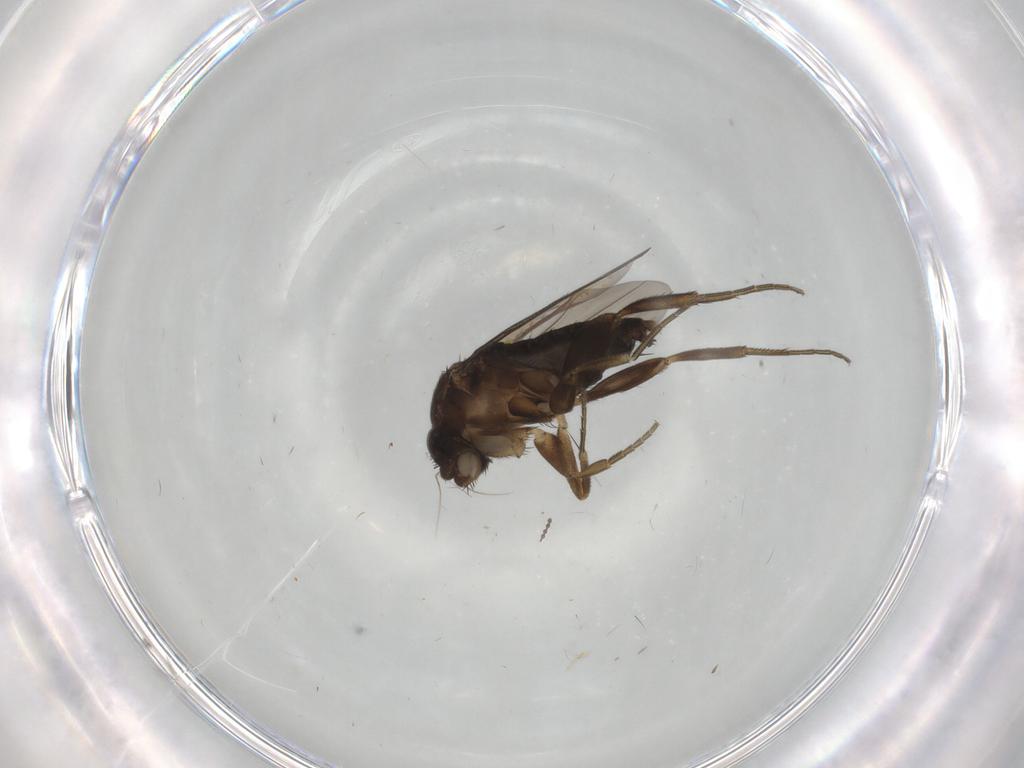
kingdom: Animalia
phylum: Arthropoda
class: Insecta
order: Diptera
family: Phoridae
